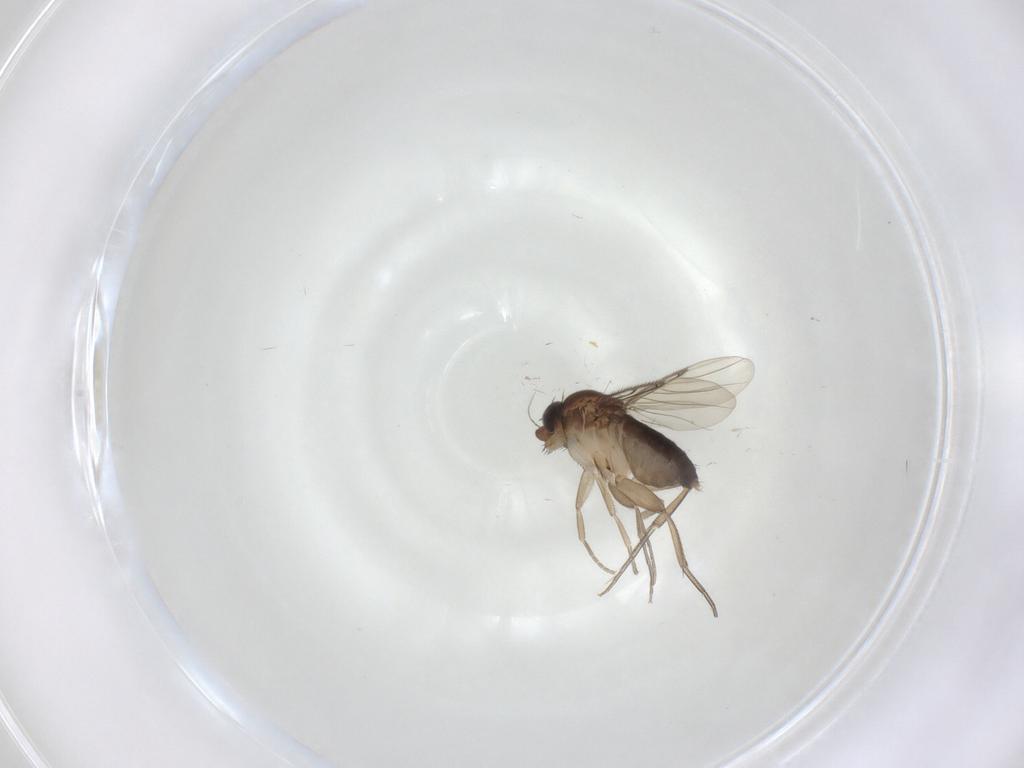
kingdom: Animalia
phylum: Arthropoda
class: Insecta
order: Diptera
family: Phoridae
